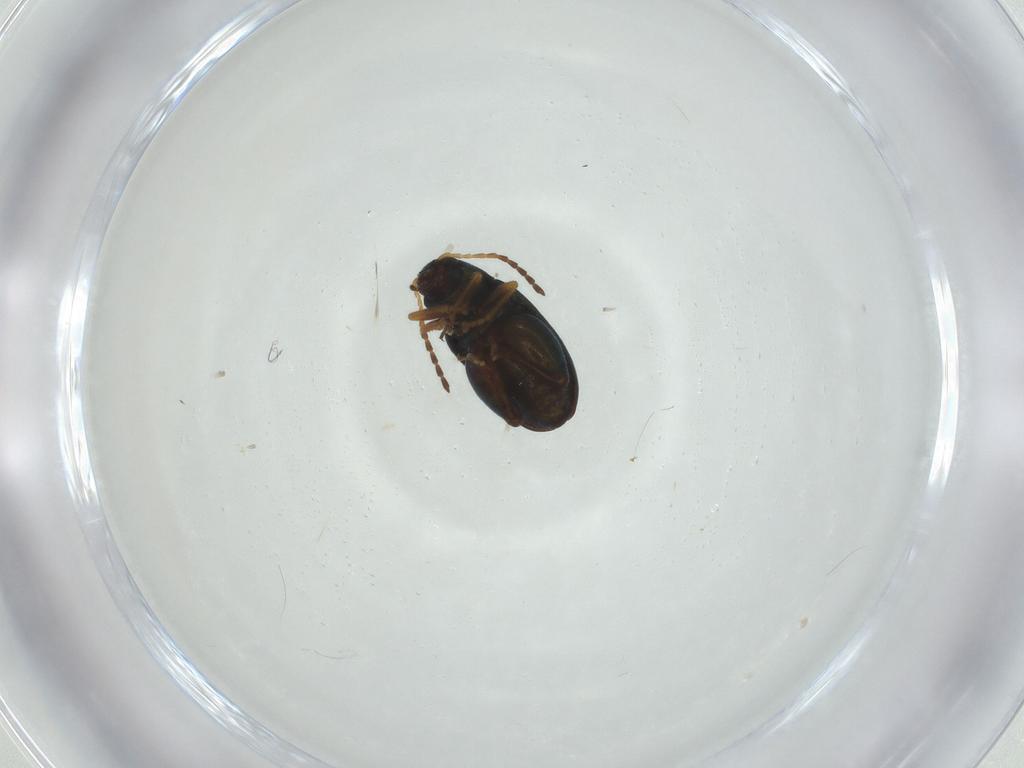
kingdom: Animalia
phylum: Arthropoda
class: Insecta
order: Coleoptera
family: Chrysomelidae
